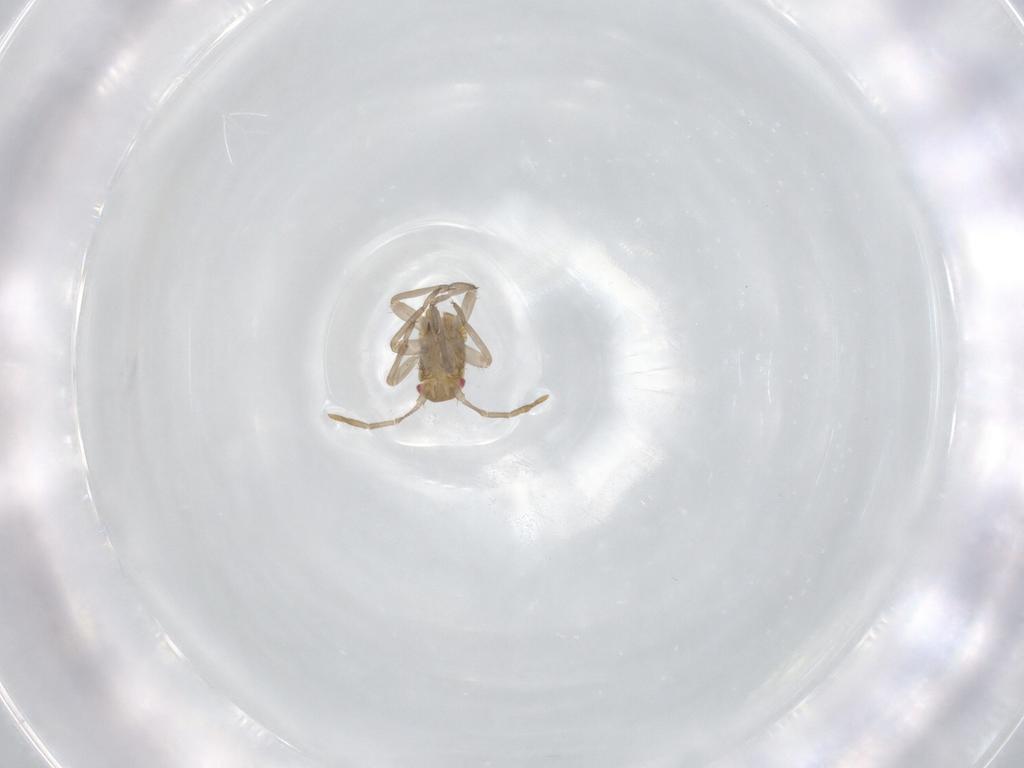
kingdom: Animalia
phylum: Arthropoda
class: Insecta
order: Hemiptera
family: Miridae
